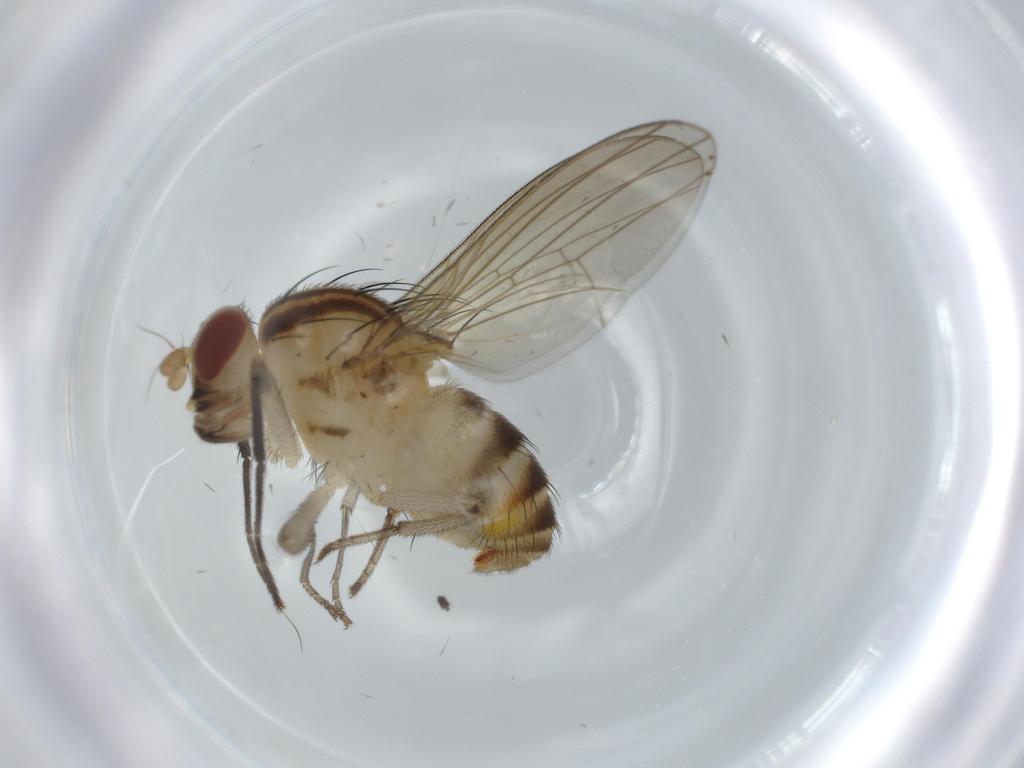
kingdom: Animalia
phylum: Arthropoda
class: Insecta
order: Diptera
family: Sciaridae
